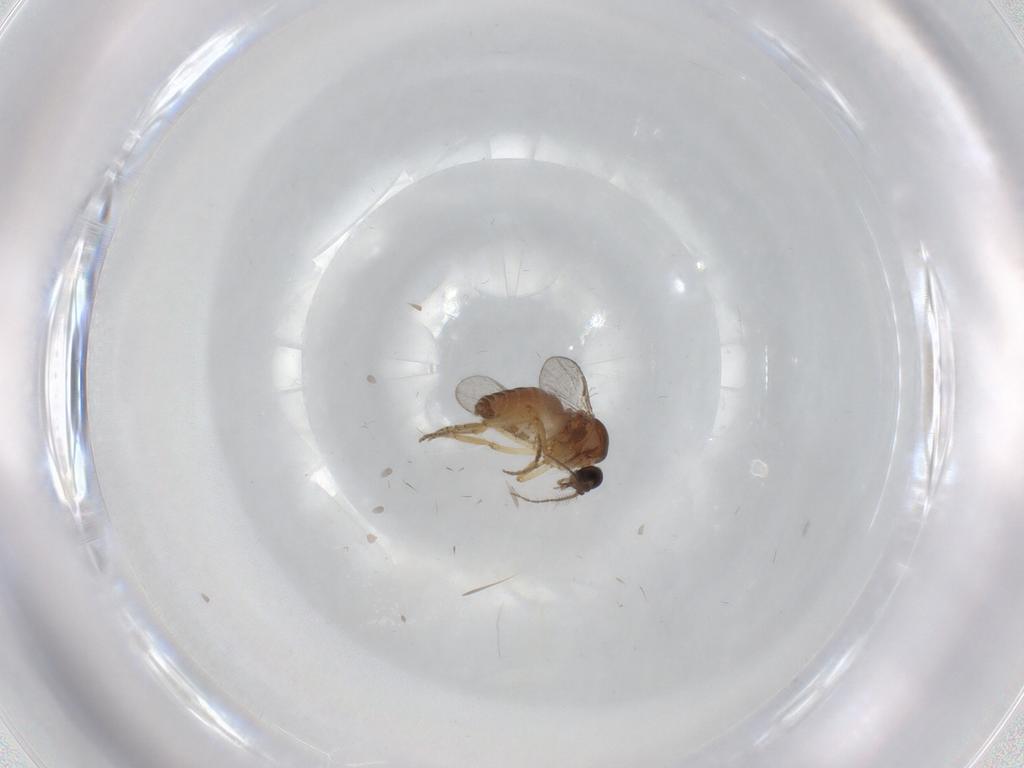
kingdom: Animalia
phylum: Arthropoda
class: Insecta
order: Diptera
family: Ceratopogonidae
